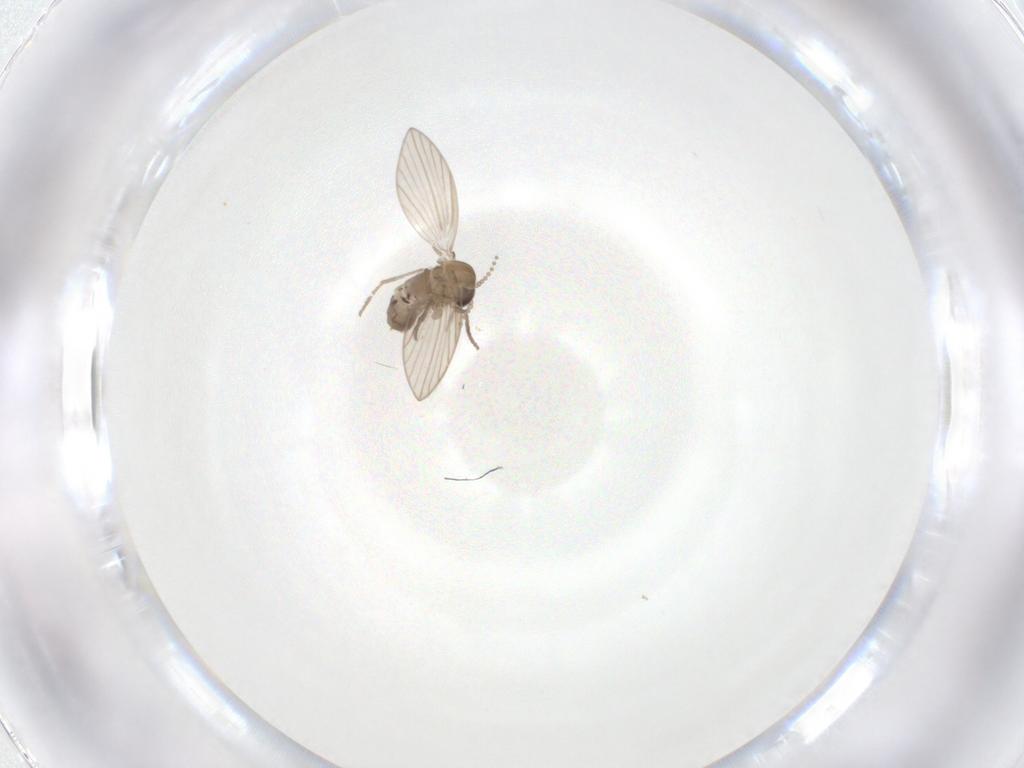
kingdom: Animalia
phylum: Arthropoda
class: Insecta
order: Diptera
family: Psychodidae
